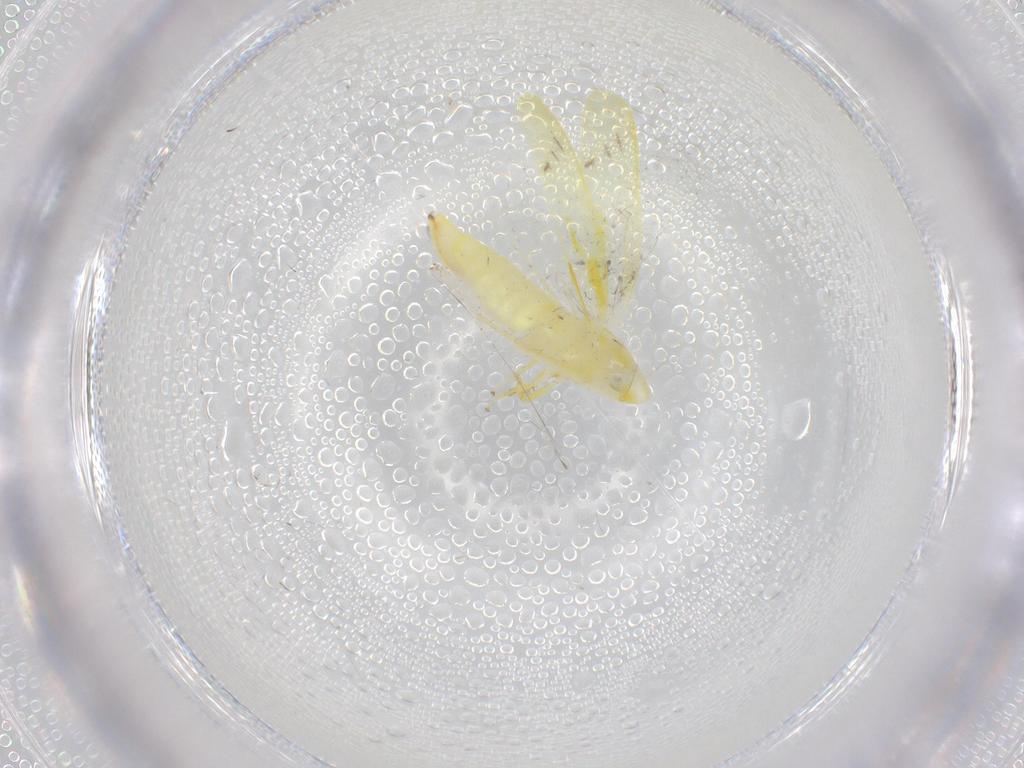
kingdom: Animalia
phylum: Arthropoda
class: Insecta
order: Hemiptera
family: Cicadellidae
